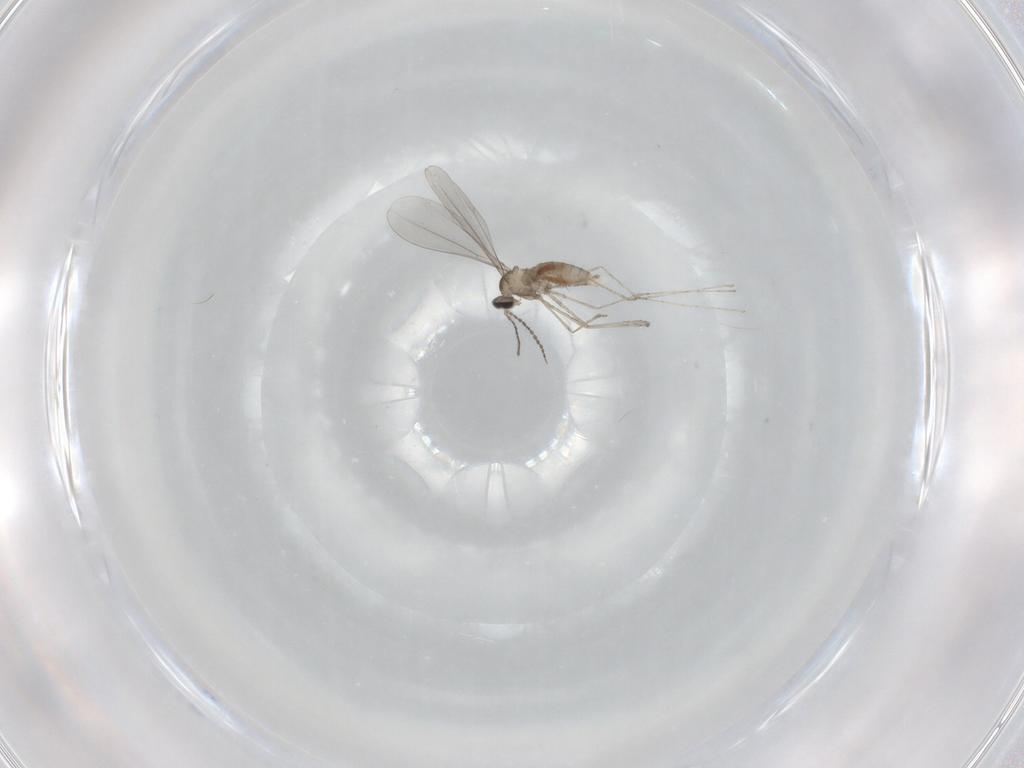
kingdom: Animalia
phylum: Arthropoda
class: Insecta
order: Diptera
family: Cecidomyiidae
